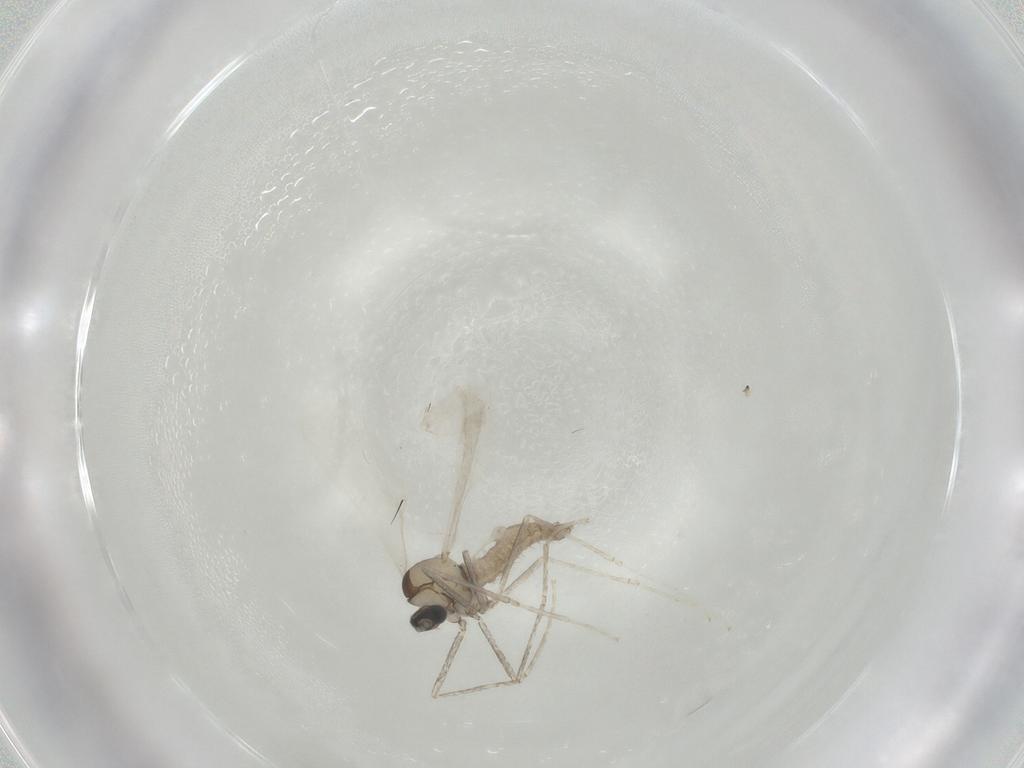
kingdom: Animalia
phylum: Arthropoda
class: Insecta
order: Diptera
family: Cecidomyiidae
